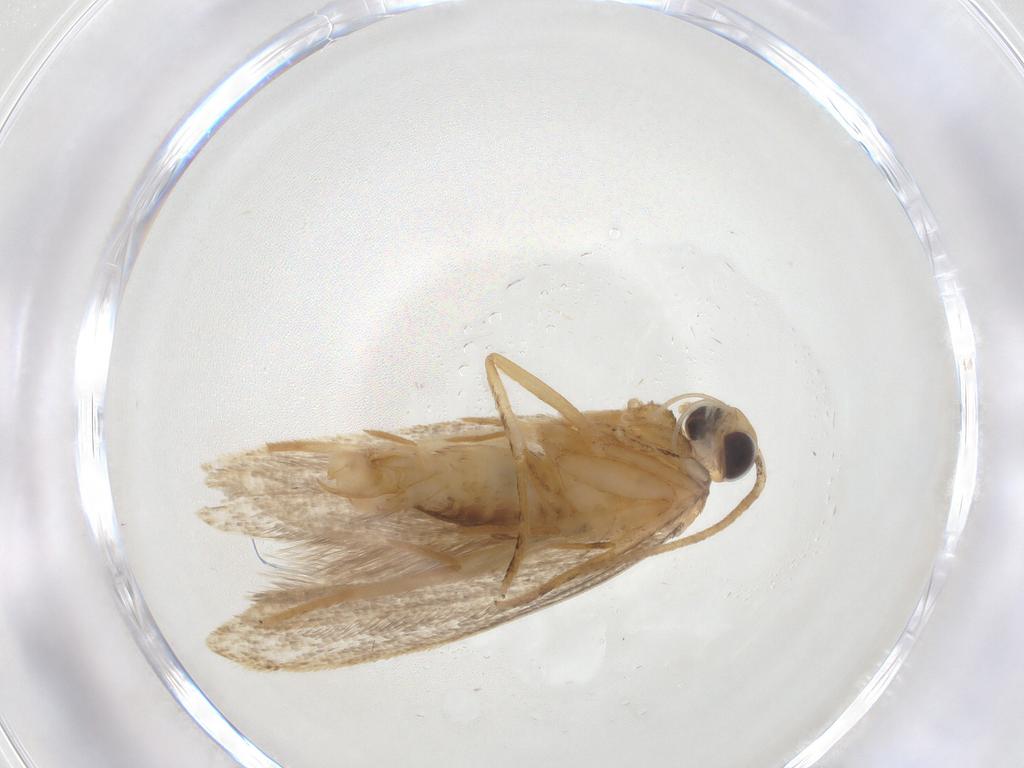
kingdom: Animalia
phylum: Arthropoda
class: Insecta
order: Lepidoptera
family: Oecophoridae
